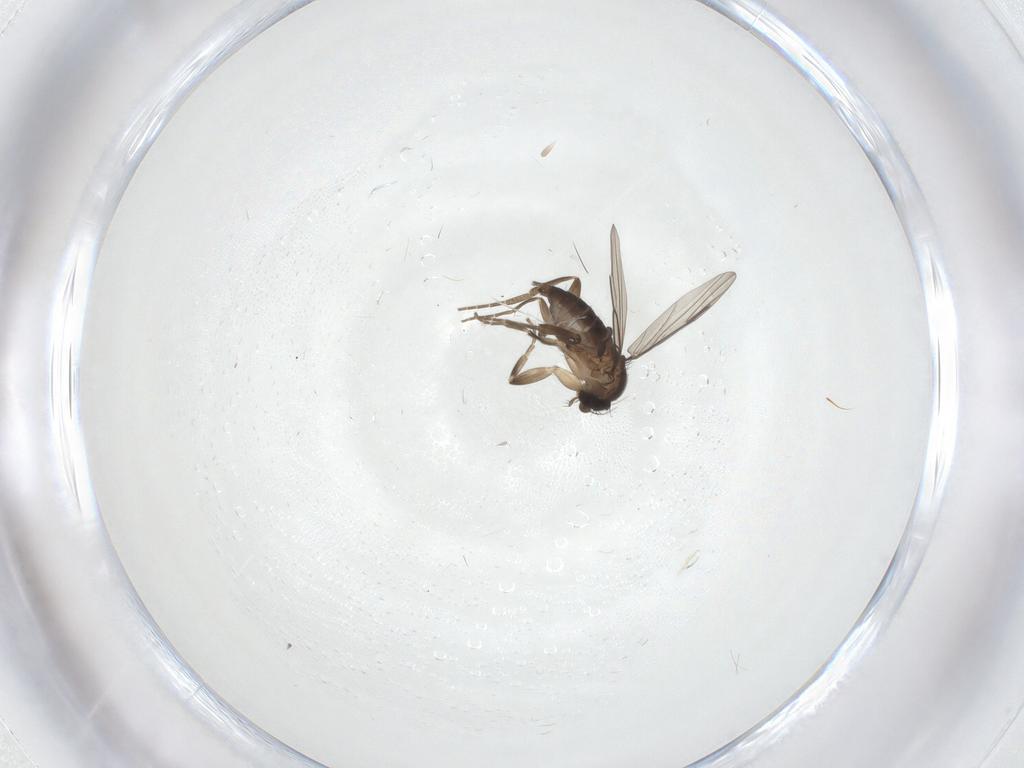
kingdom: Animalia
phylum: Arthropoda
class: Insecta
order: Diptera
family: Phoridae
